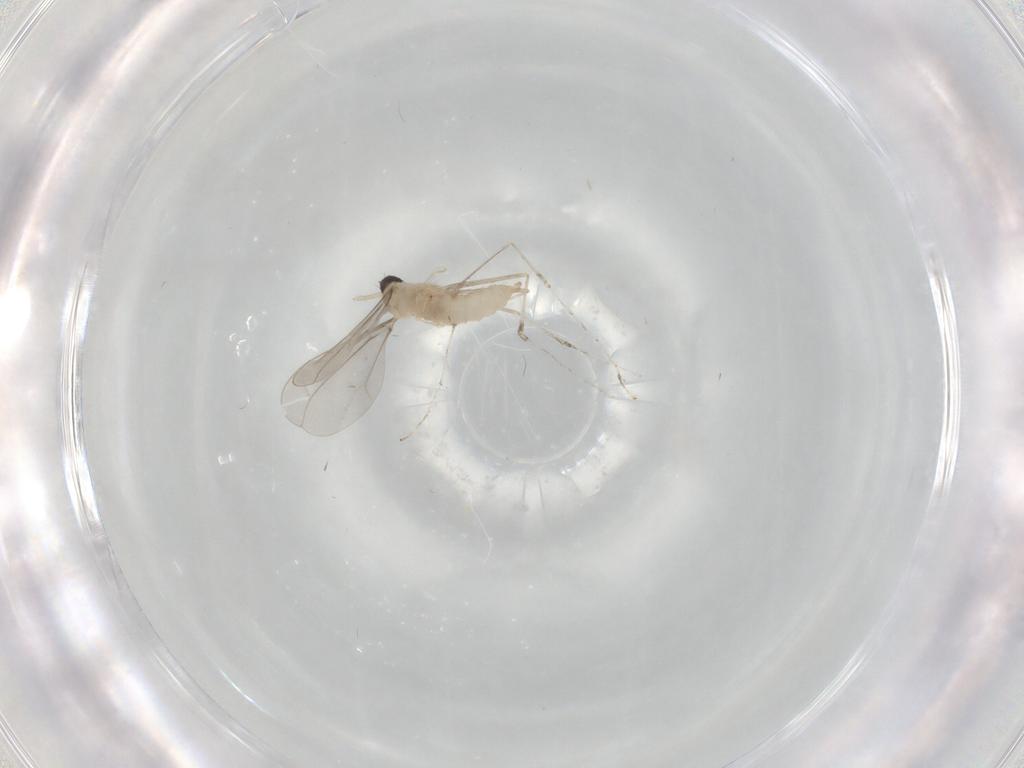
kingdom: Animalia
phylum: Arthropoda
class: Insecta
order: Diptera
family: Cecidomyiidae
